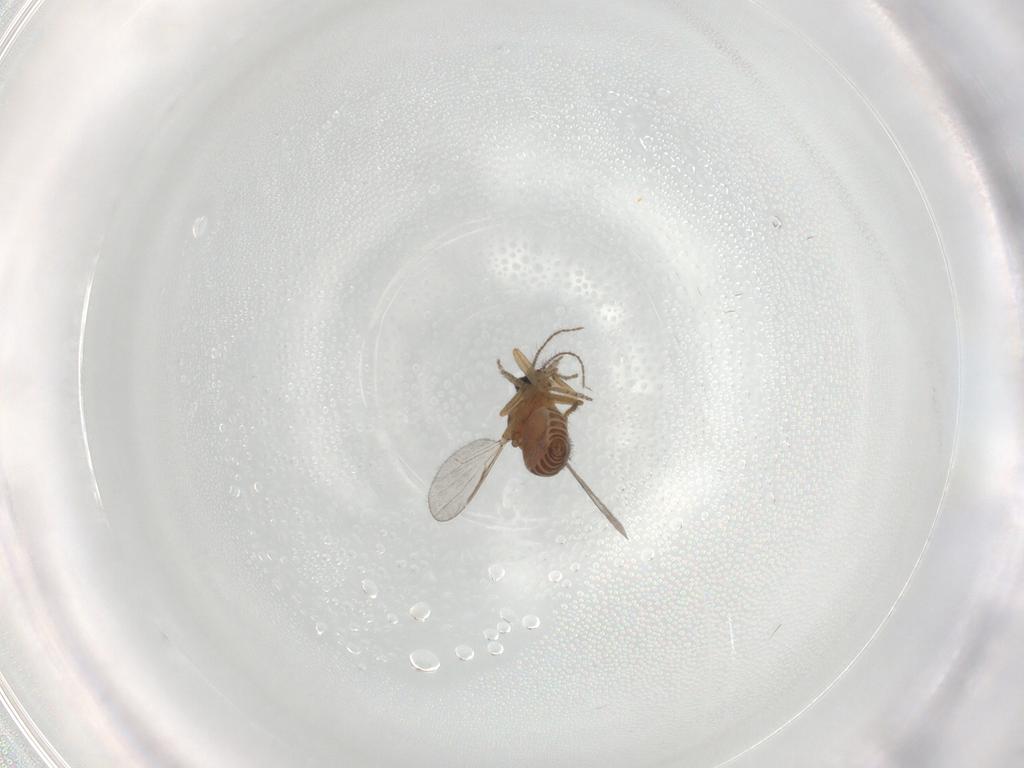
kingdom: Animalia
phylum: Arthropoda
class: Insecta
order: Diptera
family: Ceratopogonidae
